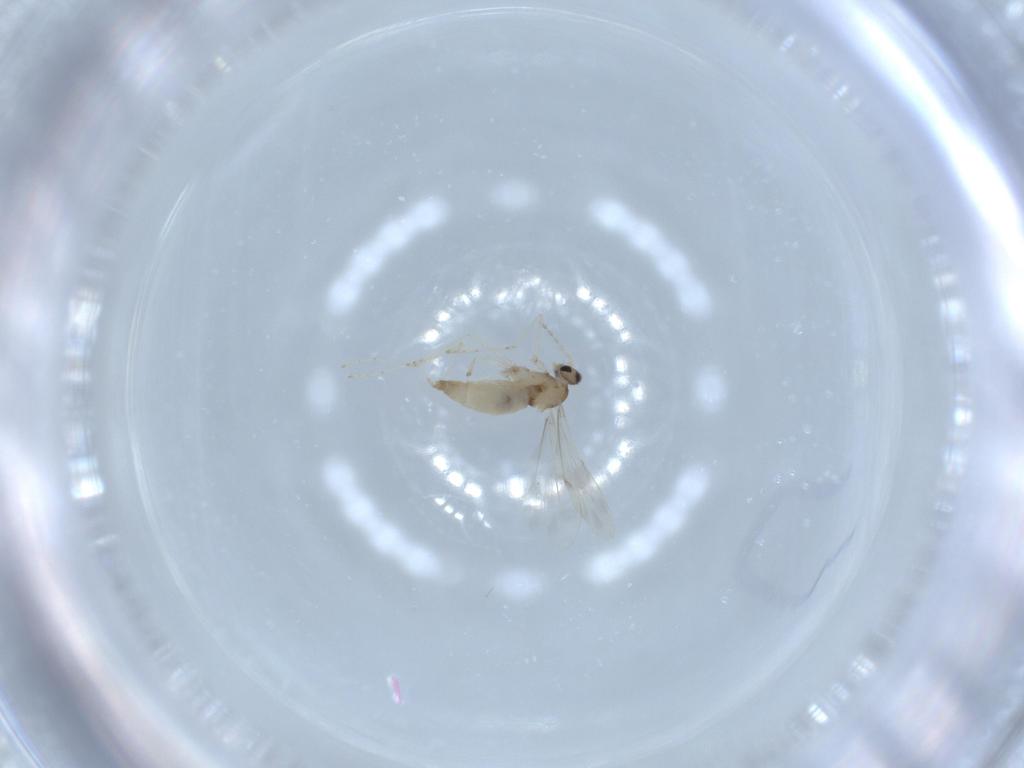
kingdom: Animalia
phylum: Arthropoda
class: Insecta
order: Diptera
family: Cecidomyiidae
